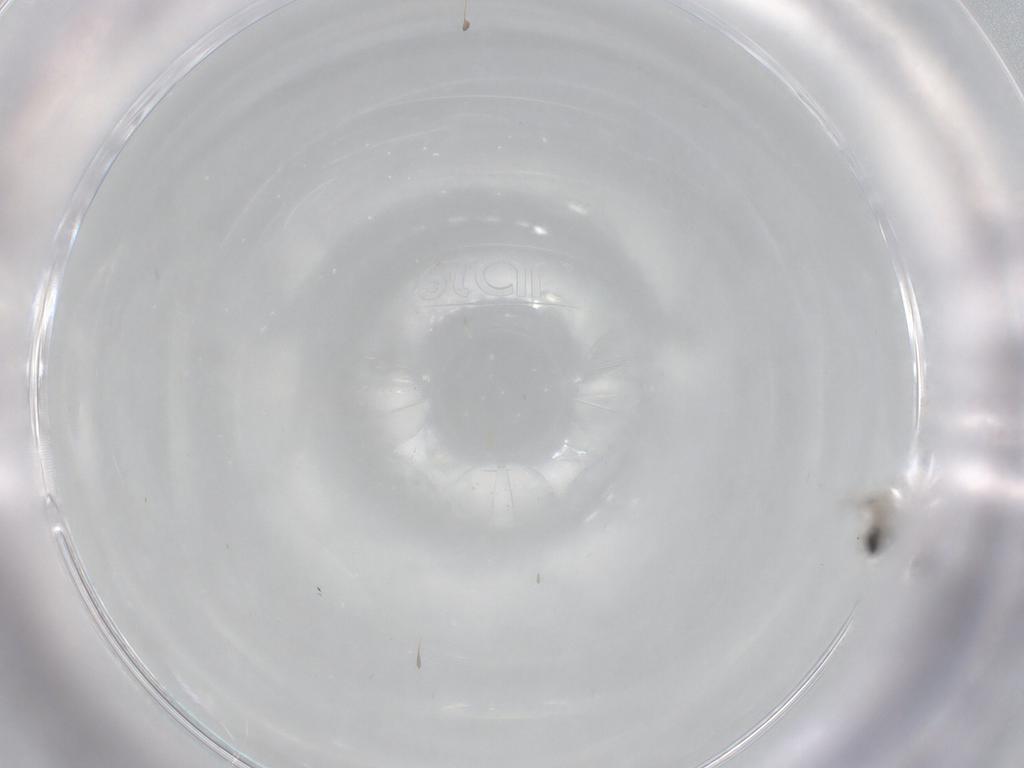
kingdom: Animalia
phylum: Arthropoda
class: Insecta
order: Diptera
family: Cecidomyiidae
